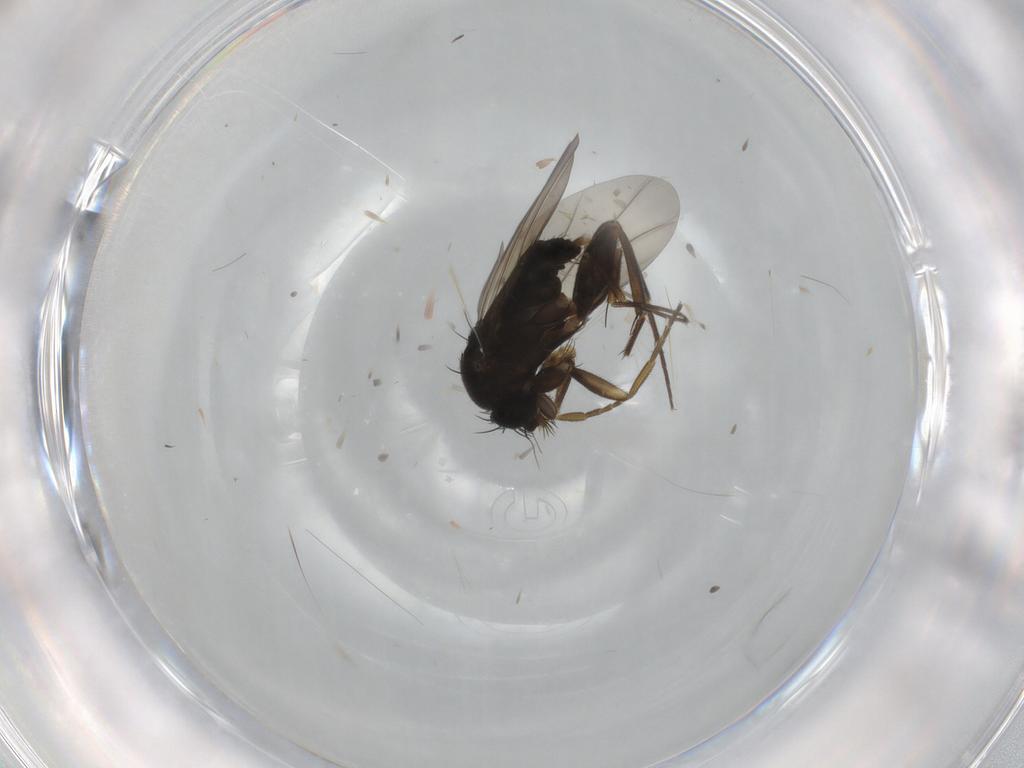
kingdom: Animalia
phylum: Arthropoda
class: Insecta
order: Diptera
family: Phoridae
